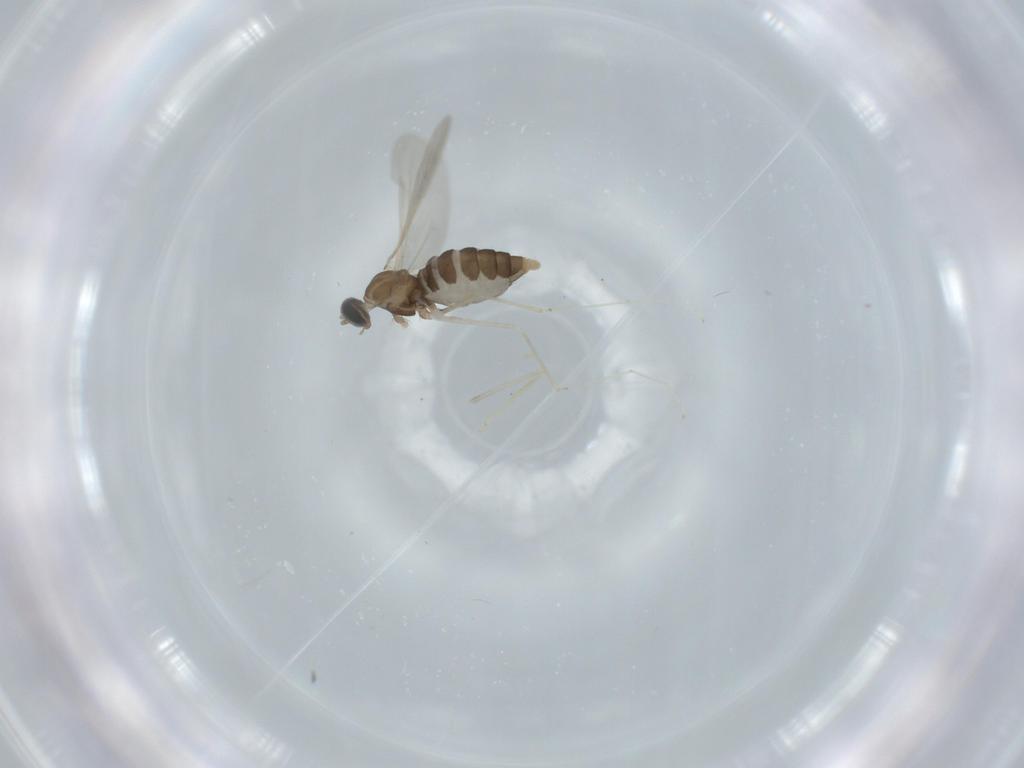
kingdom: Animalia
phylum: Arthropoda
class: Insecta
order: Diptera
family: Cecidomyiidae
